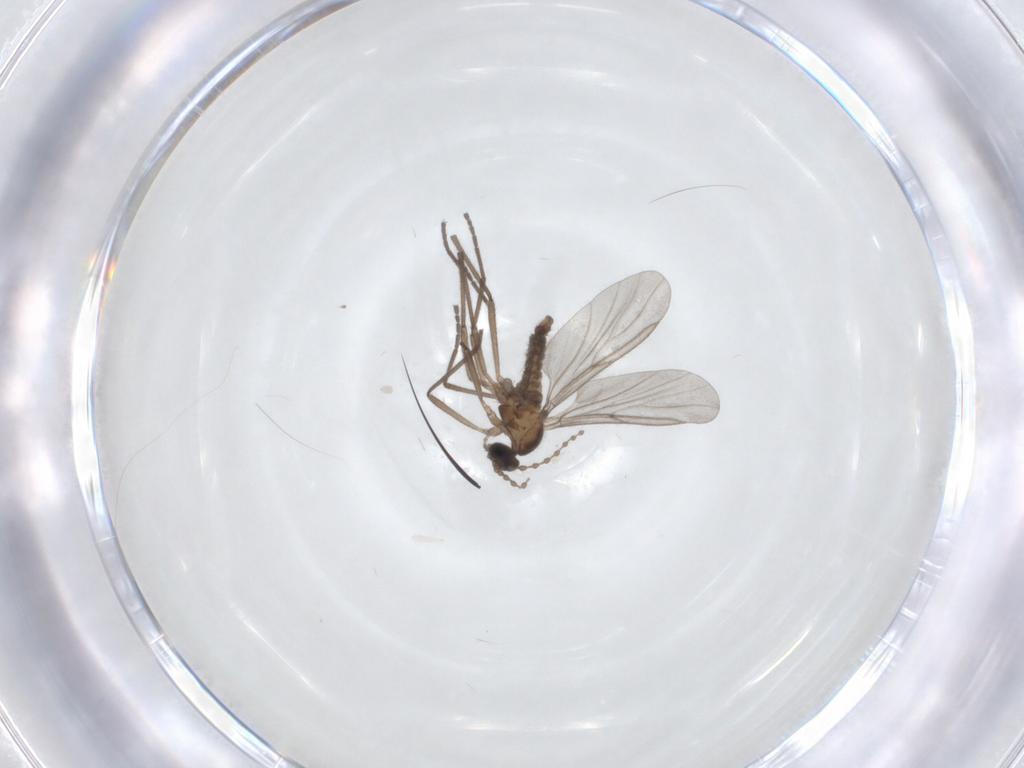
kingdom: Animalia
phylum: Arthropoda
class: Insecta
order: Diptera
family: Cecidomyiidae
